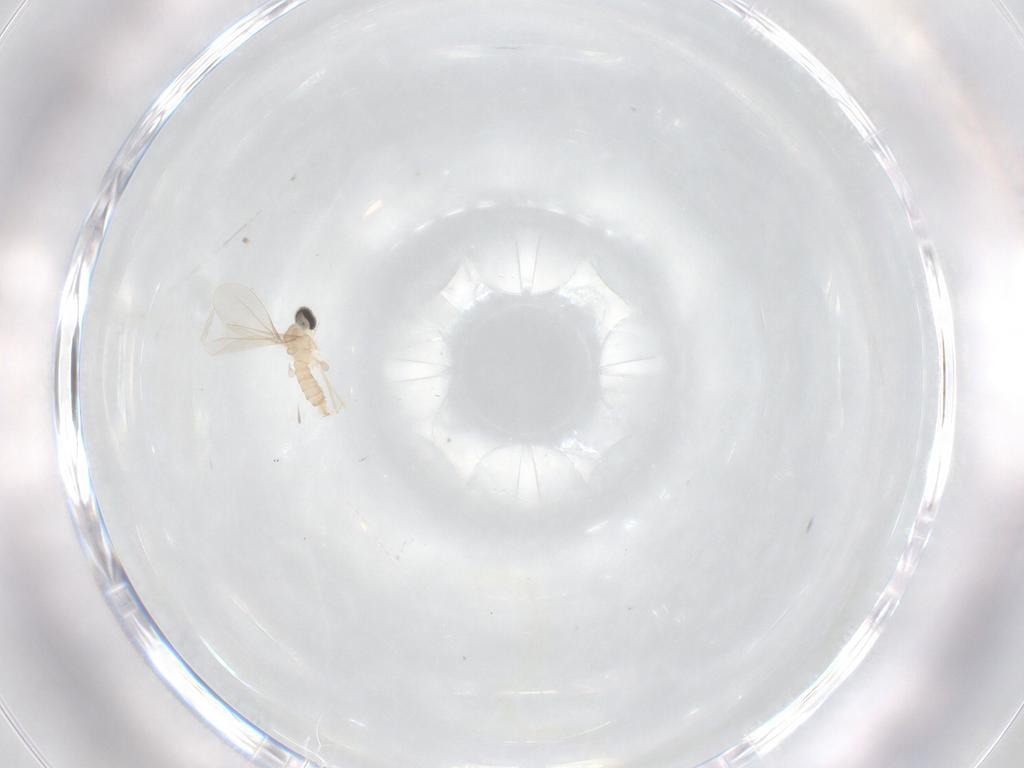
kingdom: Animalia
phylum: Arthropoda
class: Insecta
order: Diptera
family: Cecidomyiidae
